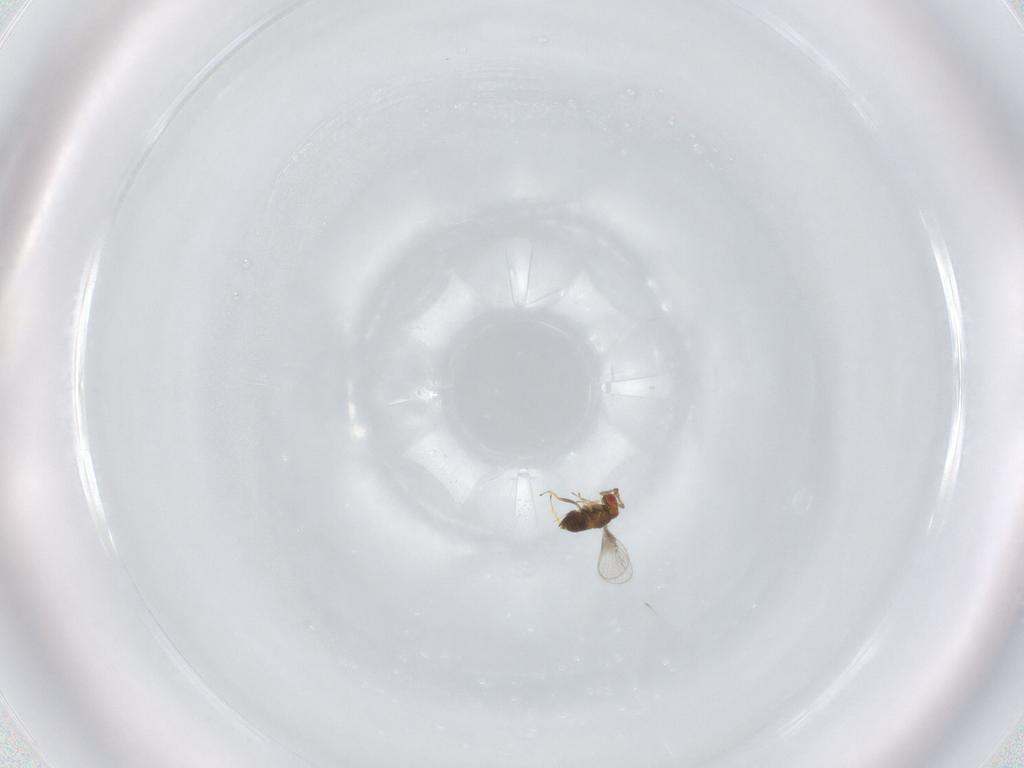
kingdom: Animalia
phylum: Arthropoda
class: Insecta
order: Hymenoptera
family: Trichogrammatidae
